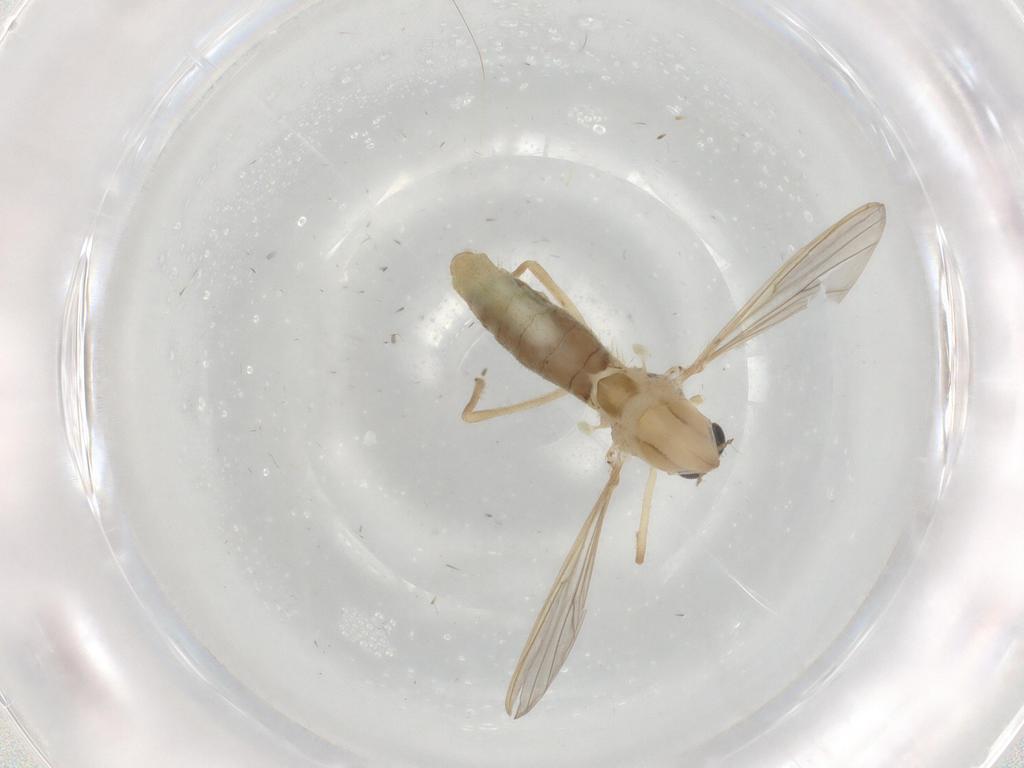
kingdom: Animalia
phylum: Arthropoda
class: Insecta
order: Diptera
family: Chironomidae
